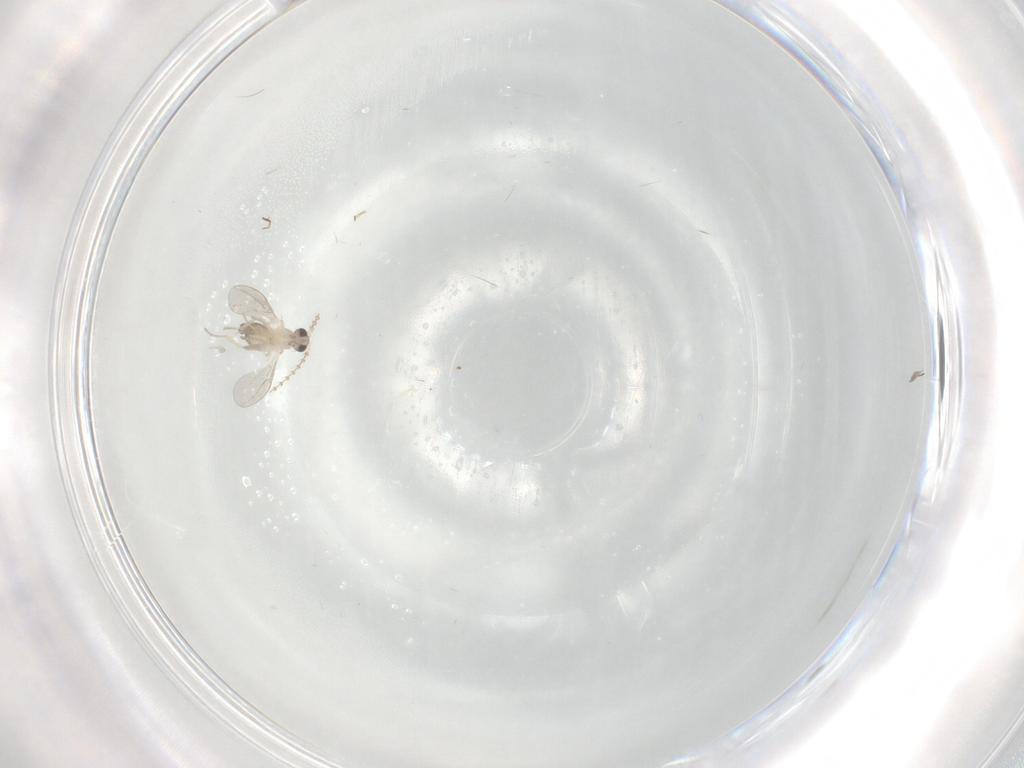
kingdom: Animalia
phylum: Arthropoda
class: Insecta
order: Diptera
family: Cecidomyiidae
